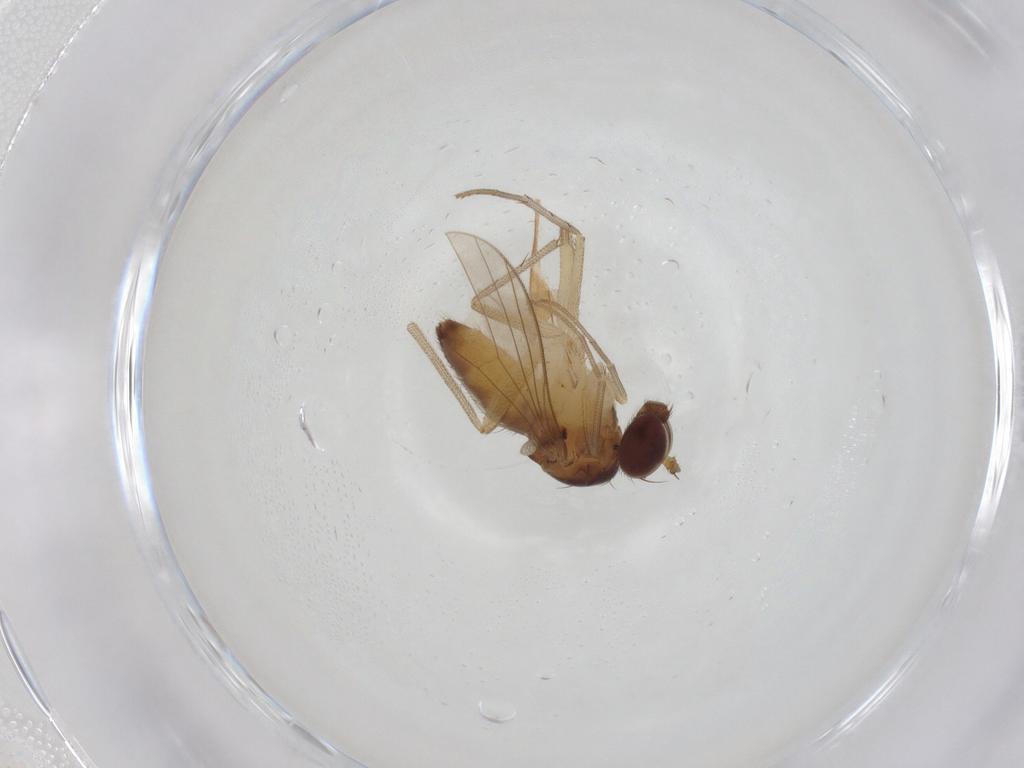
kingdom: Animalia
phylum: Arthropoda
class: Insecta
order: Diptera
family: Dolichopodidae
